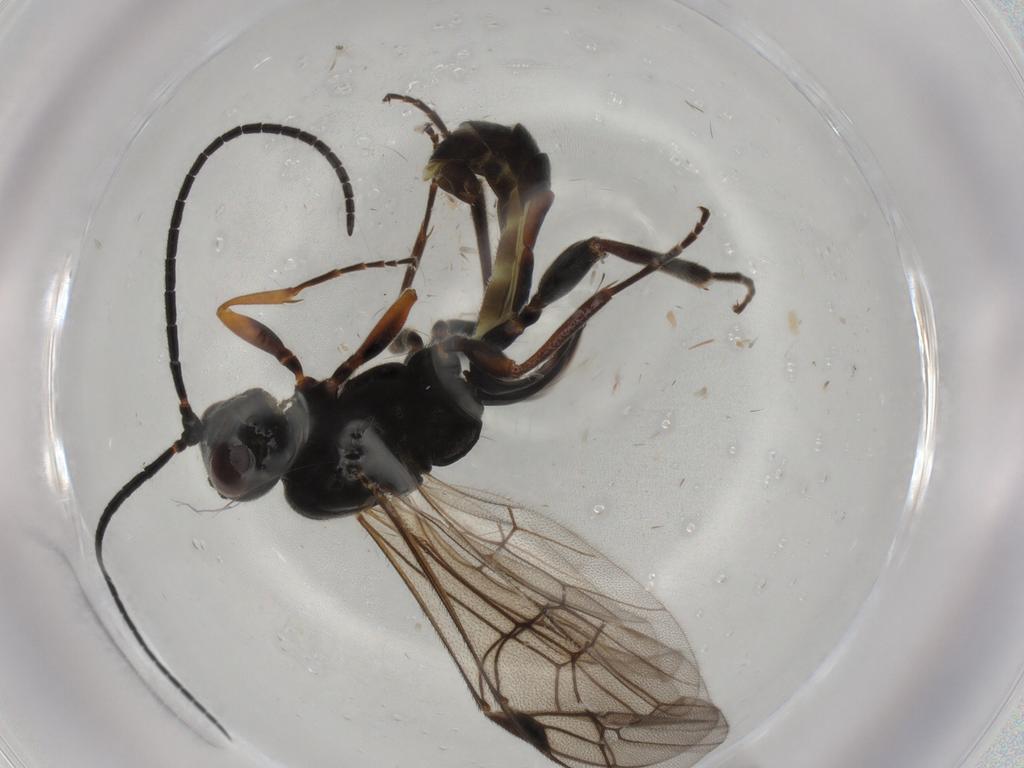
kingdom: Animalia
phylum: Arthropoda
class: Insecta
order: Hymenoptera
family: Ichneumonidae
